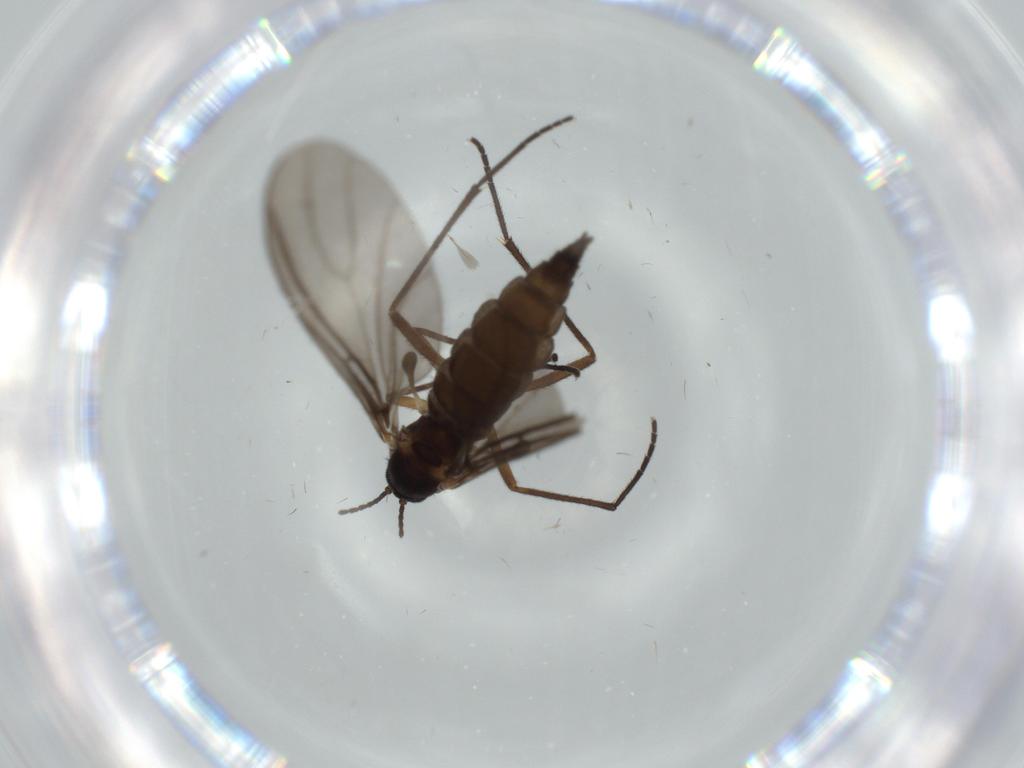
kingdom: Animalia
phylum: Arthropoda
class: Insecta
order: Diptera
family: Sciaridae
